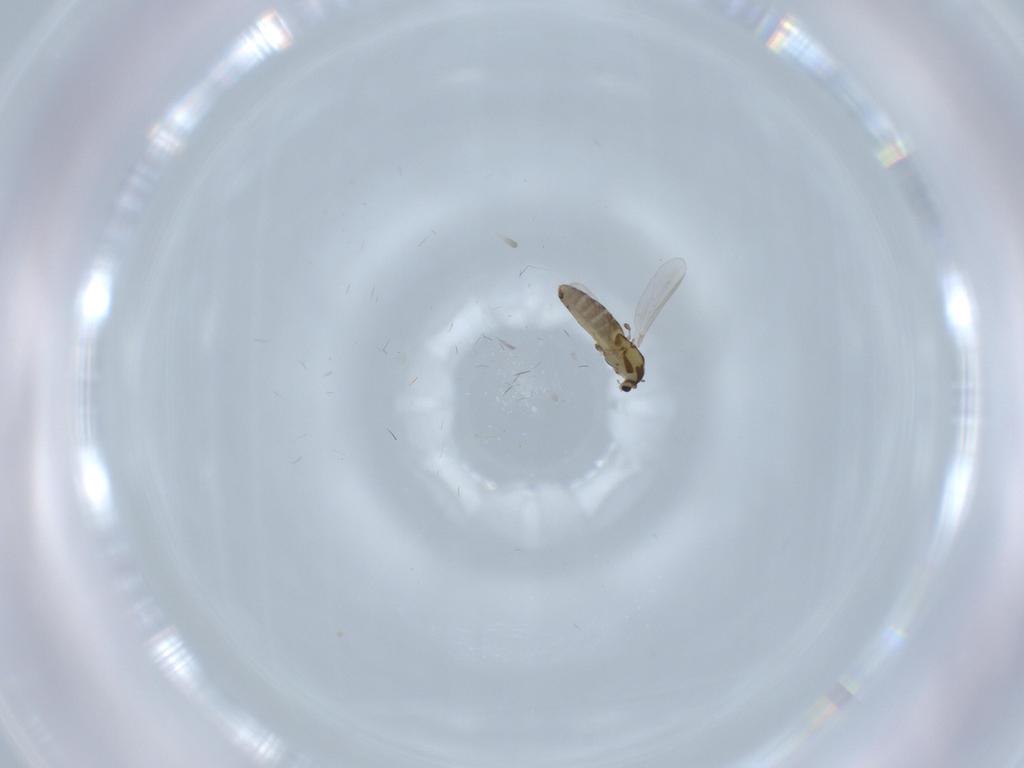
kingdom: Animalia
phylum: Arthropoda
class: Insecta
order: Diptera
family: Chironomidae
